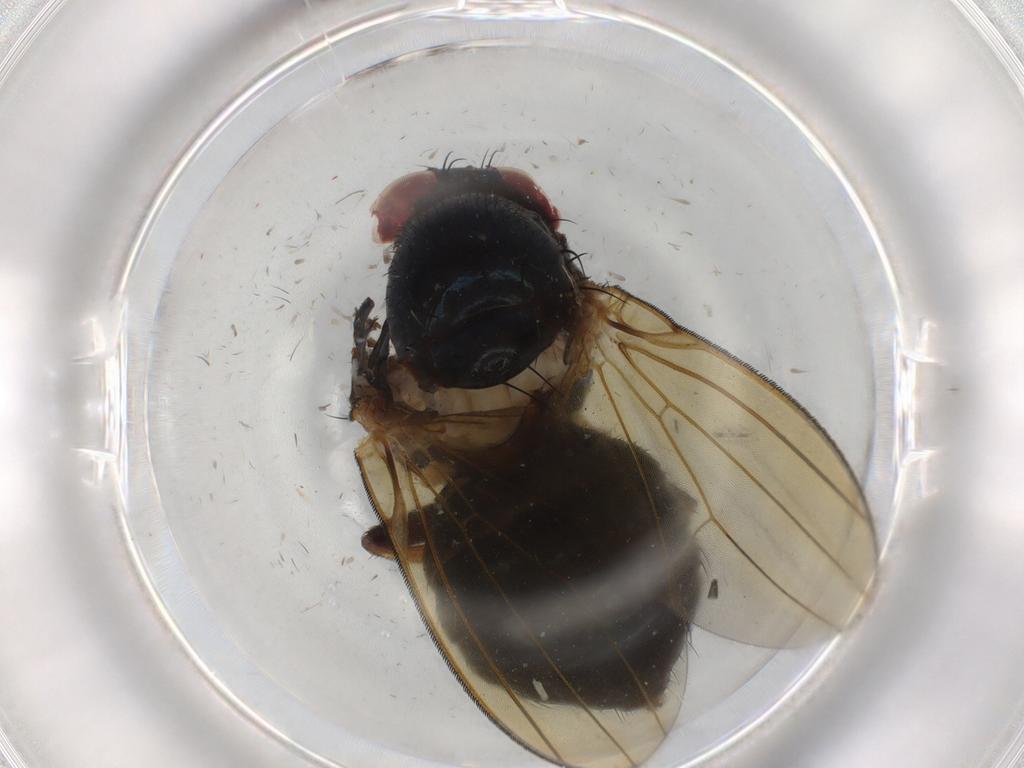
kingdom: Animalia
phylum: Arthropoda
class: Insecta
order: Diptera
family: Lauxaniidae
